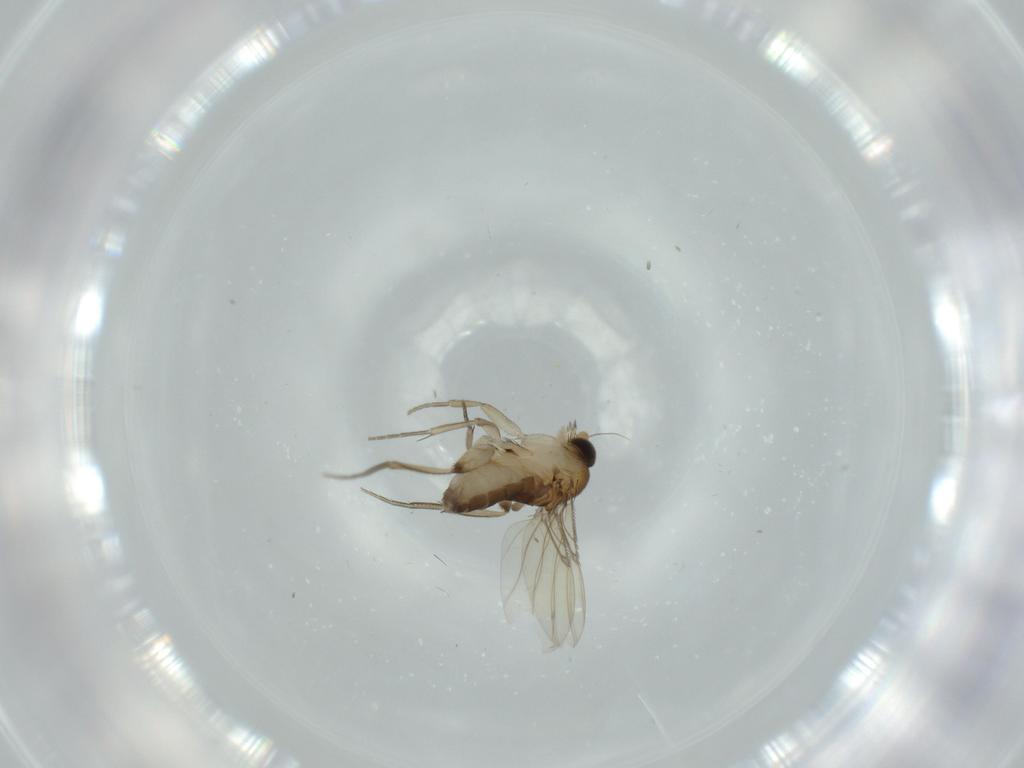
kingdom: Animalia
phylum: Arthropoda
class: Insecta
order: Diptera
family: Phoridae
